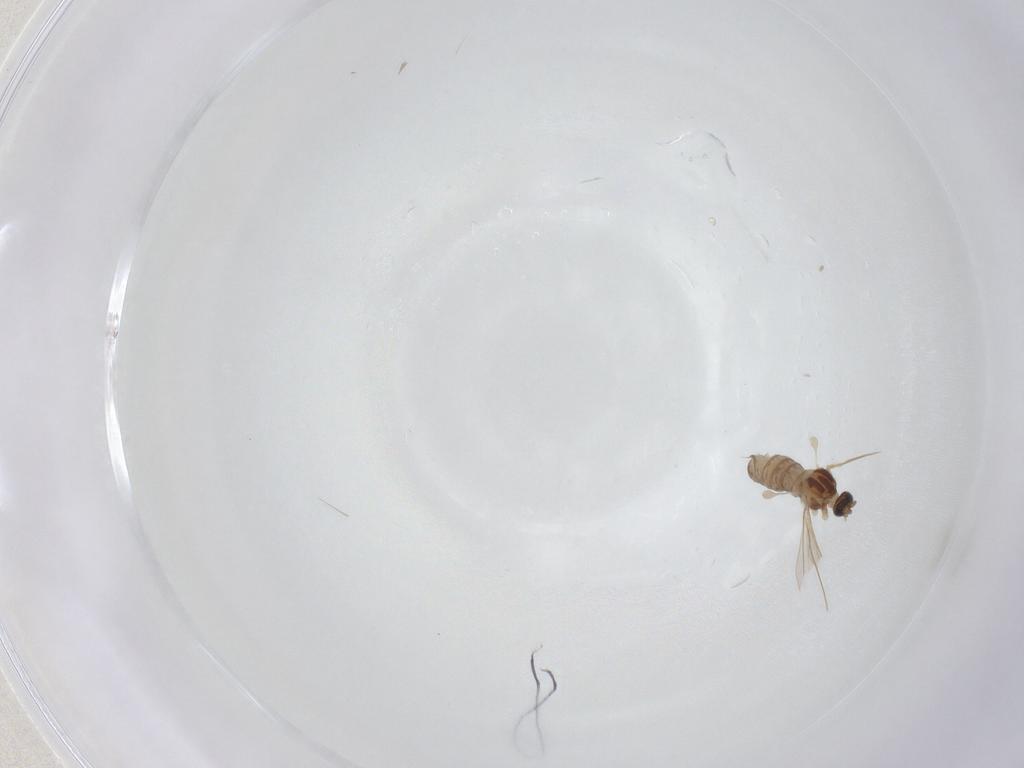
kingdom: Animalia
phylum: Arthropoda
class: Insecta
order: Diptera
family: Cecidomyiidae
